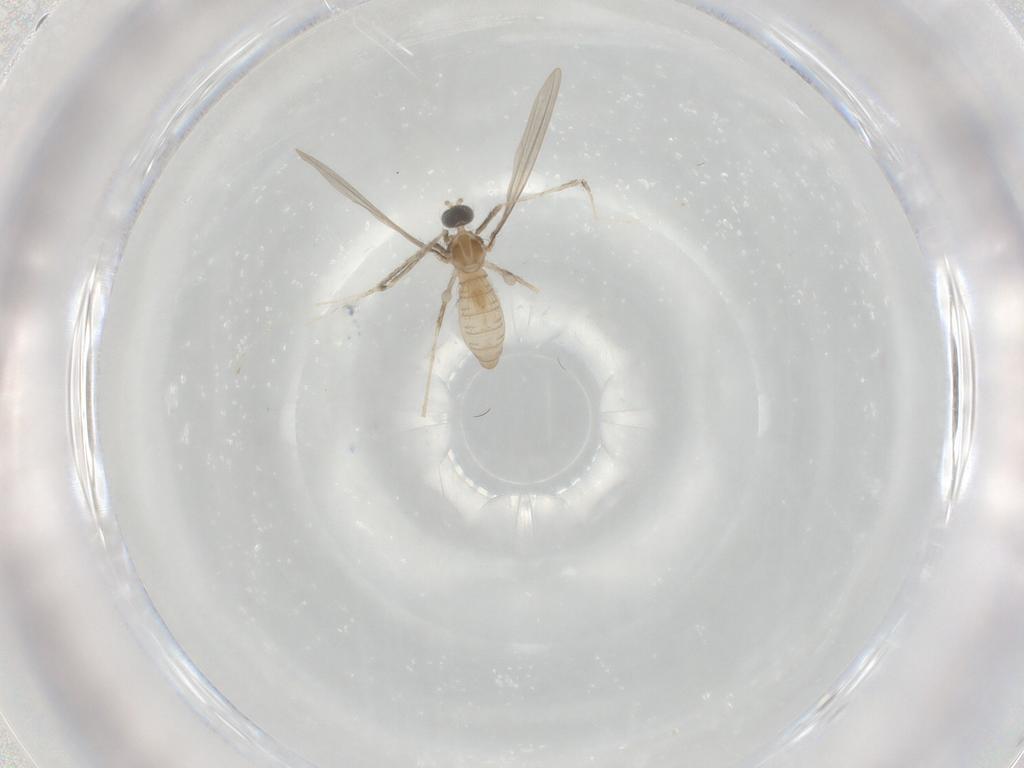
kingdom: Animalia
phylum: Arthropoda
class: Insecta
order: Diptera
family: Cecidomyiidae
